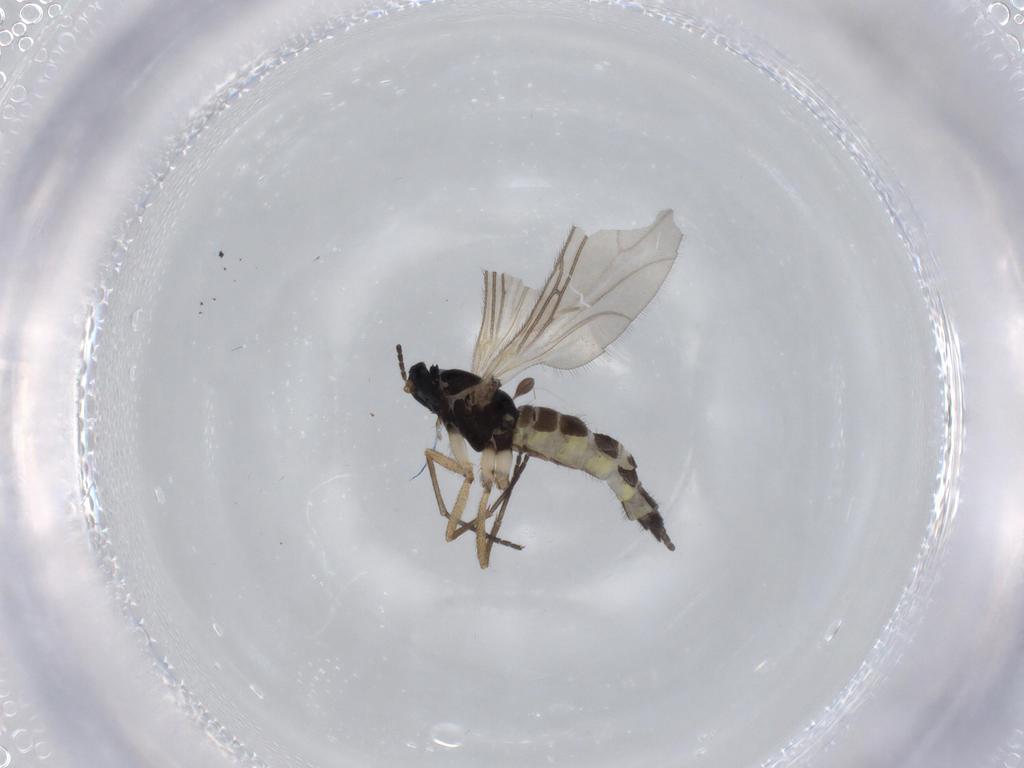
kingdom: Animalia
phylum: Arthropoda
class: Insecta
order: Diptera
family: Sciaridae
